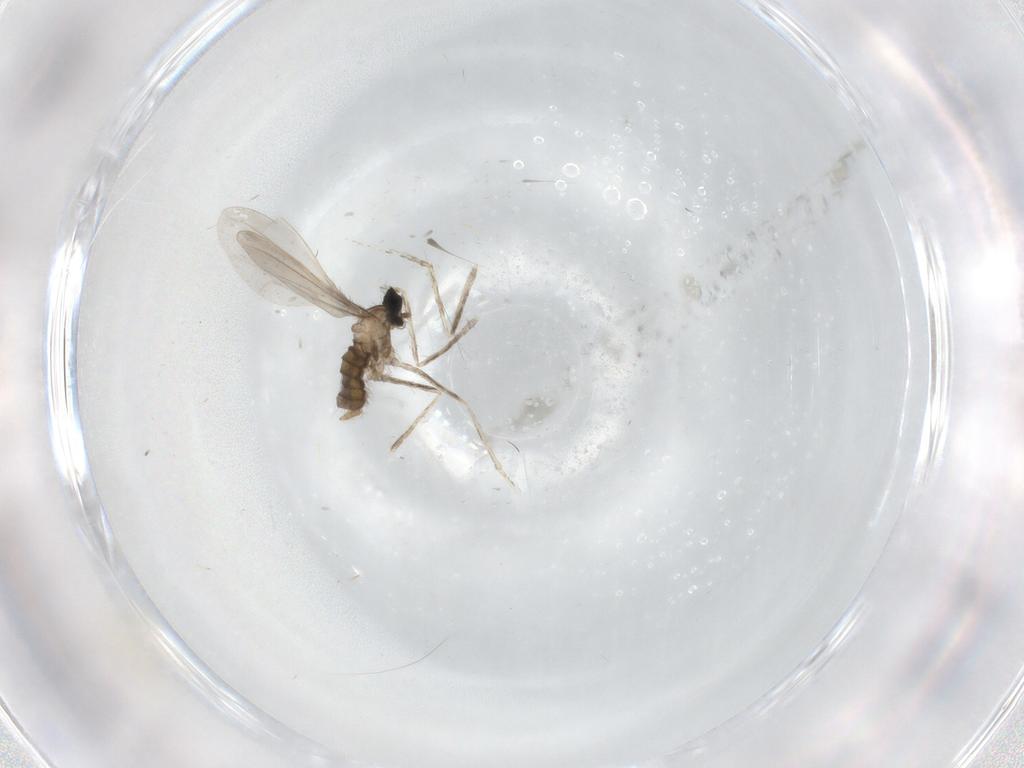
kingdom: Animalia
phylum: Arthropoda
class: Insecta
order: Diptera
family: Cecidomyiidae
